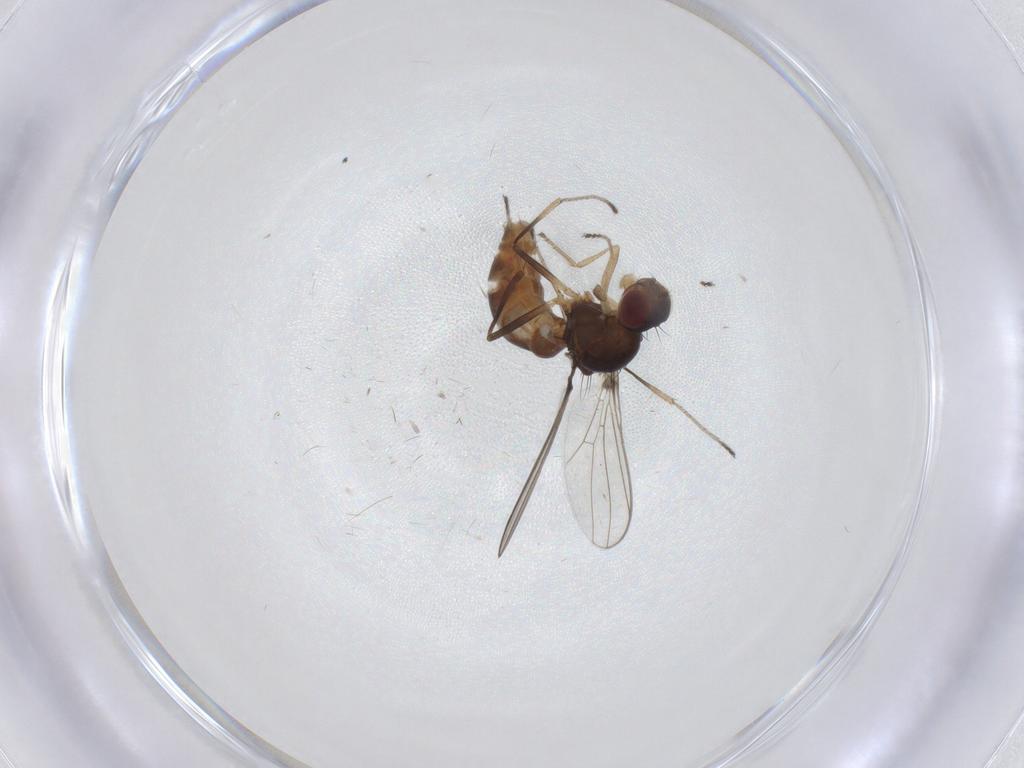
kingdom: Animalia
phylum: Arthropoda
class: Insecta
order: Diptera
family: Sepsidae
